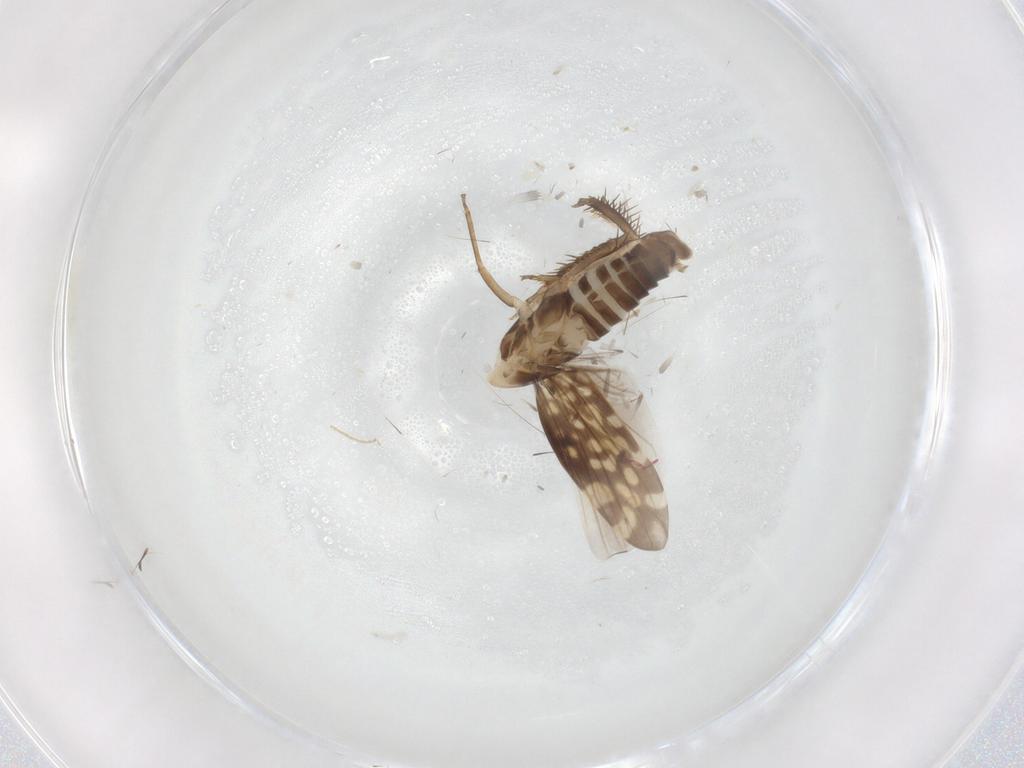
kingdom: Animalia
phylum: Arthropoda
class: Insecta
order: Hemiptera
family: Cicadellidae
